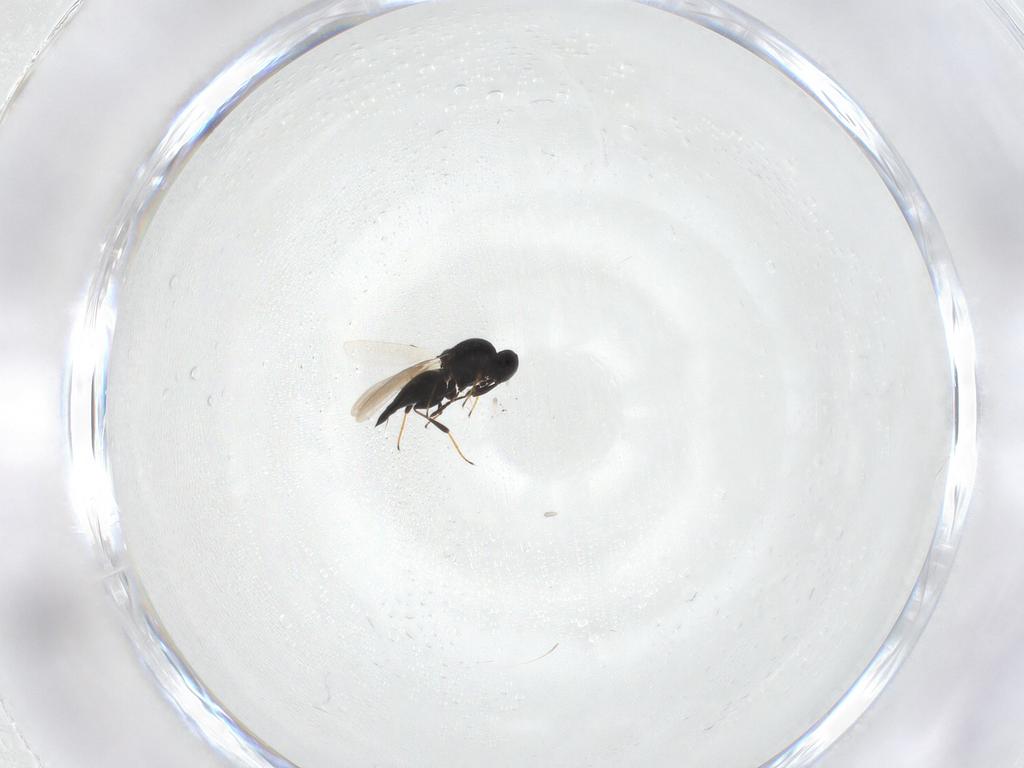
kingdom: Animalia
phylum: Arthropoda
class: Insecta
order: Hymenoptera
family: Platygastridae
